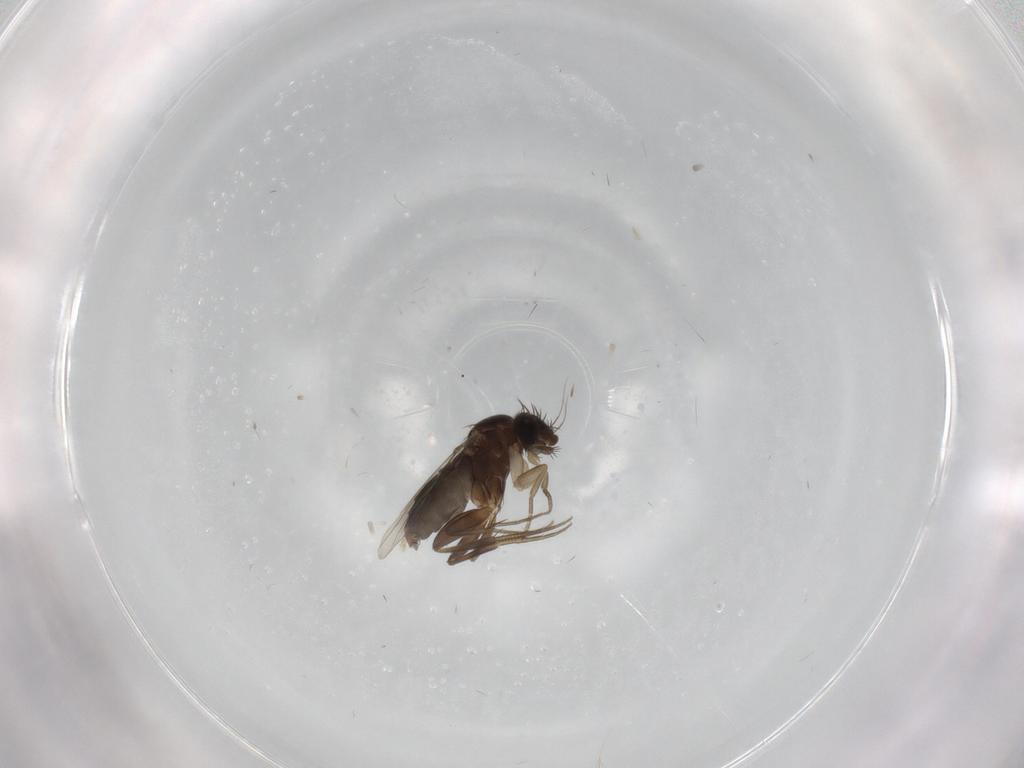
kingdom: Animalia
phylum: Arthropoda
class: Insecta
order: Diptera
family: Phoridae
